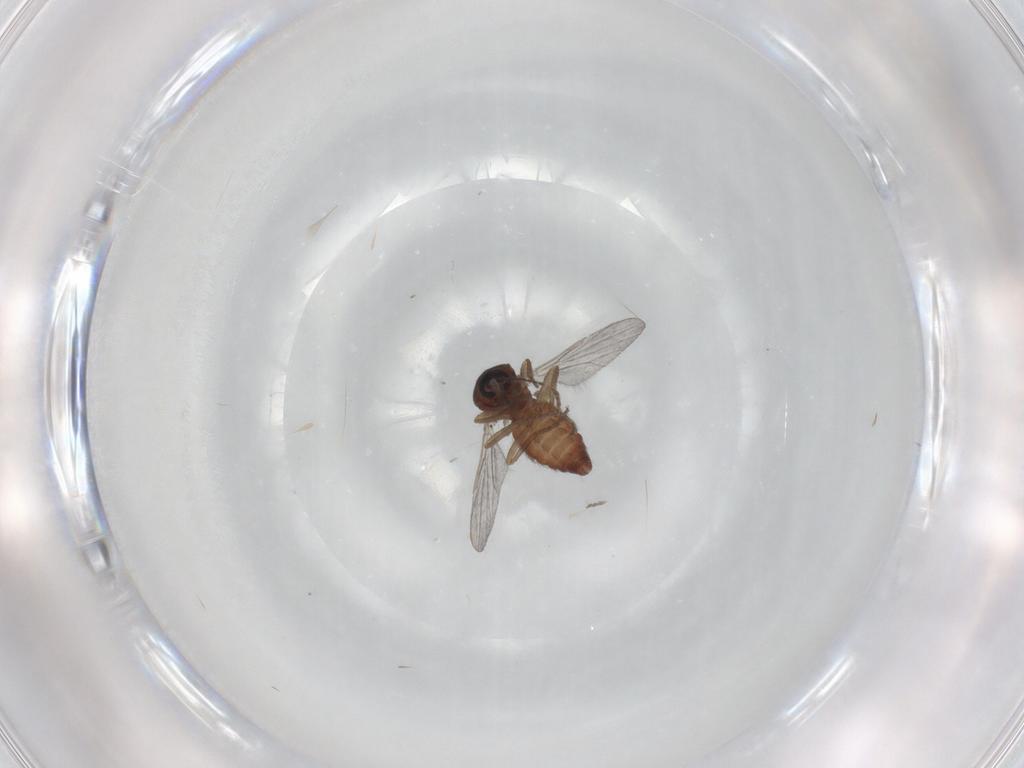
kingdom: Animalia
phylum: Arthropoda
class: Insecta
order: Diptera
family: Ceratopogonidae
